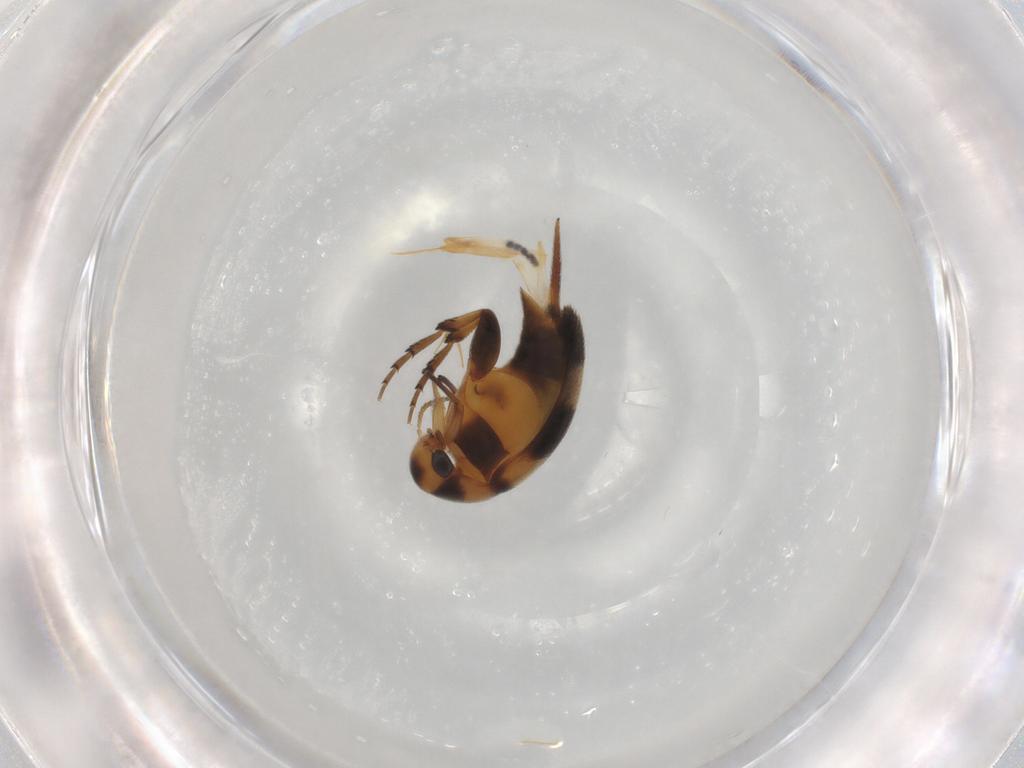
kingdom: Animalia
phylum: Arthropoda
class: Insecta
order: Coleoptera
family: Mordellidae
